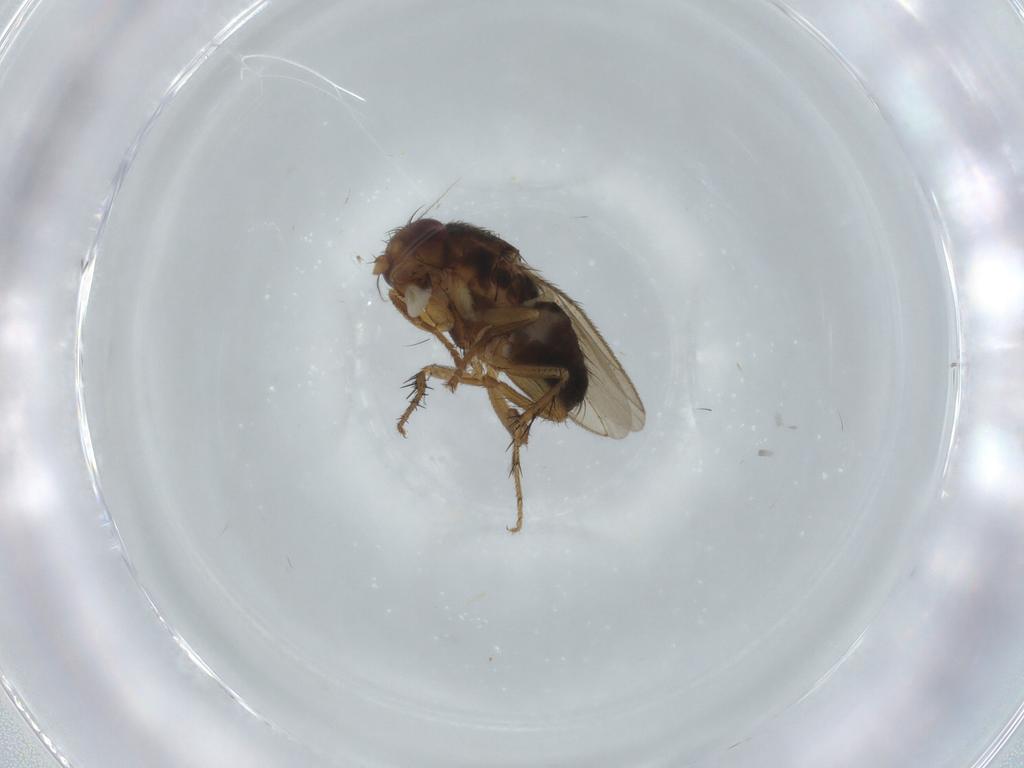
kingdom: Animalia
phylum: Arthropoda
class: Insecta
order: Diptera
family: Sphaeroceridae
